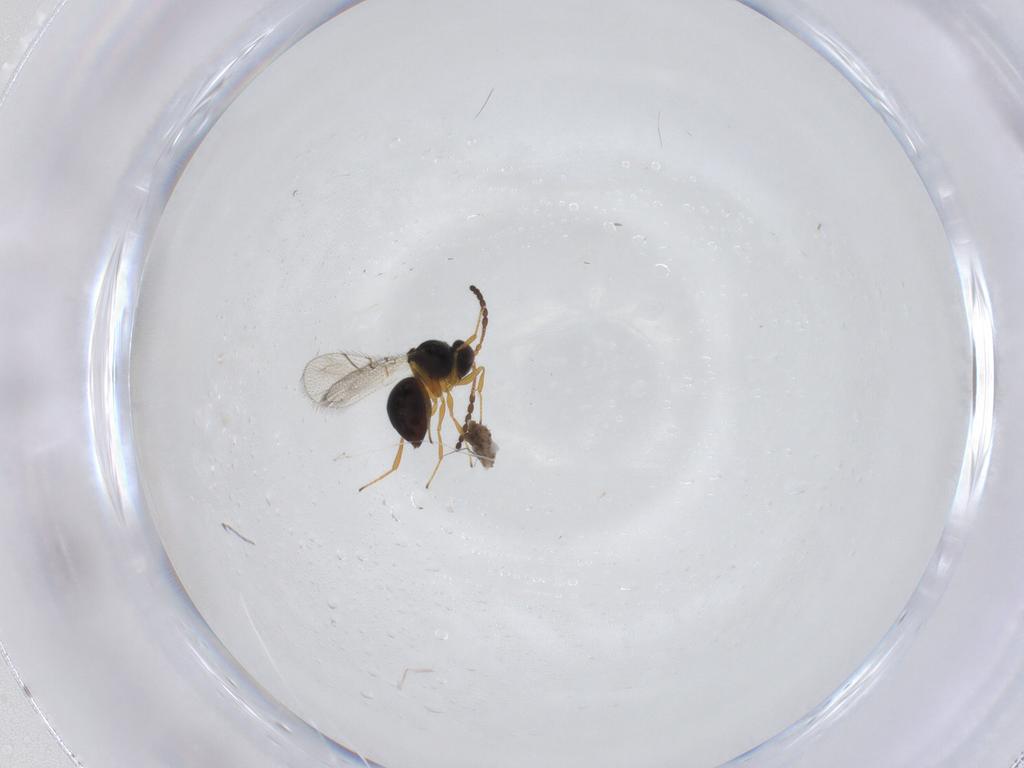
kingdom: Animalia
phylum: Arthropoda
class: Insecta
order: Hymenoptera
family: Figitidae
